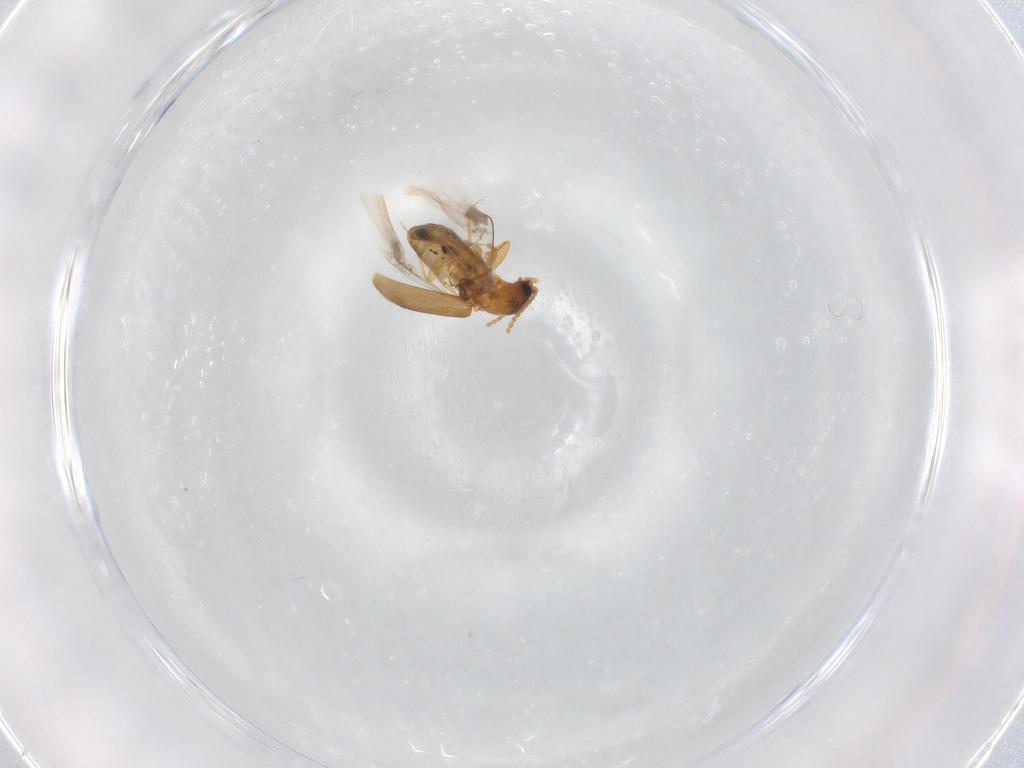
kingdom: Animalia
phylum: Arthropoda
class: Insecta
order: Coleoptera
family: Carabidae
